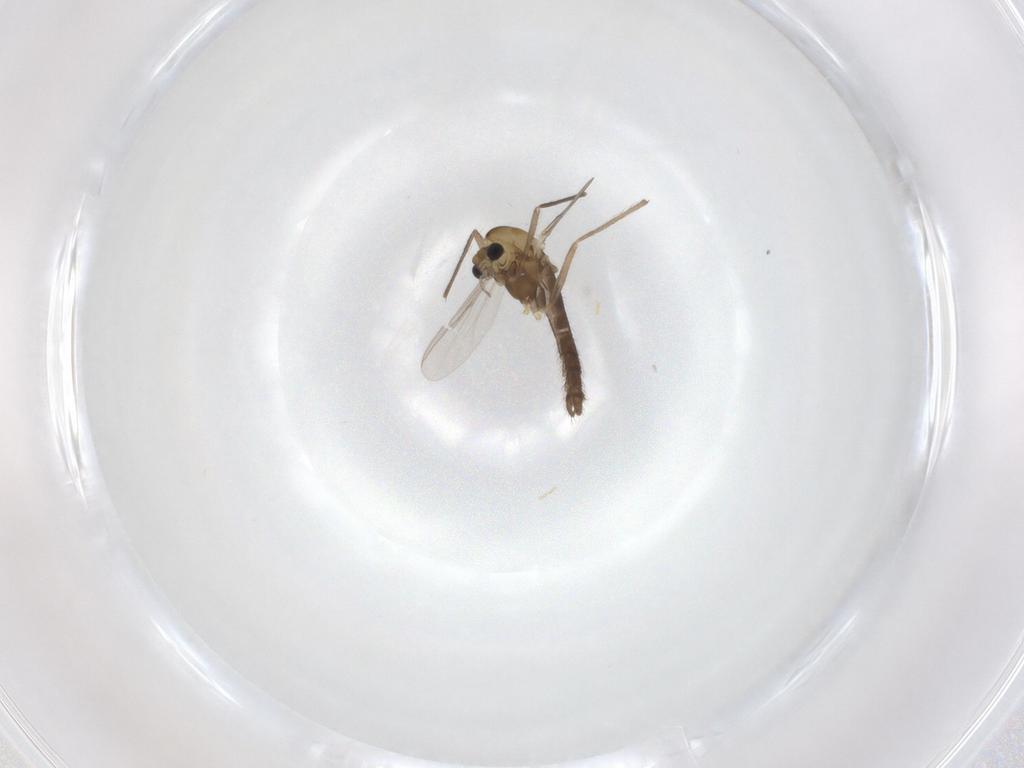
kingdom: Animalia
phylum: Arthropoda
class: Insecta
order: Diptera
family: Chironomidae
